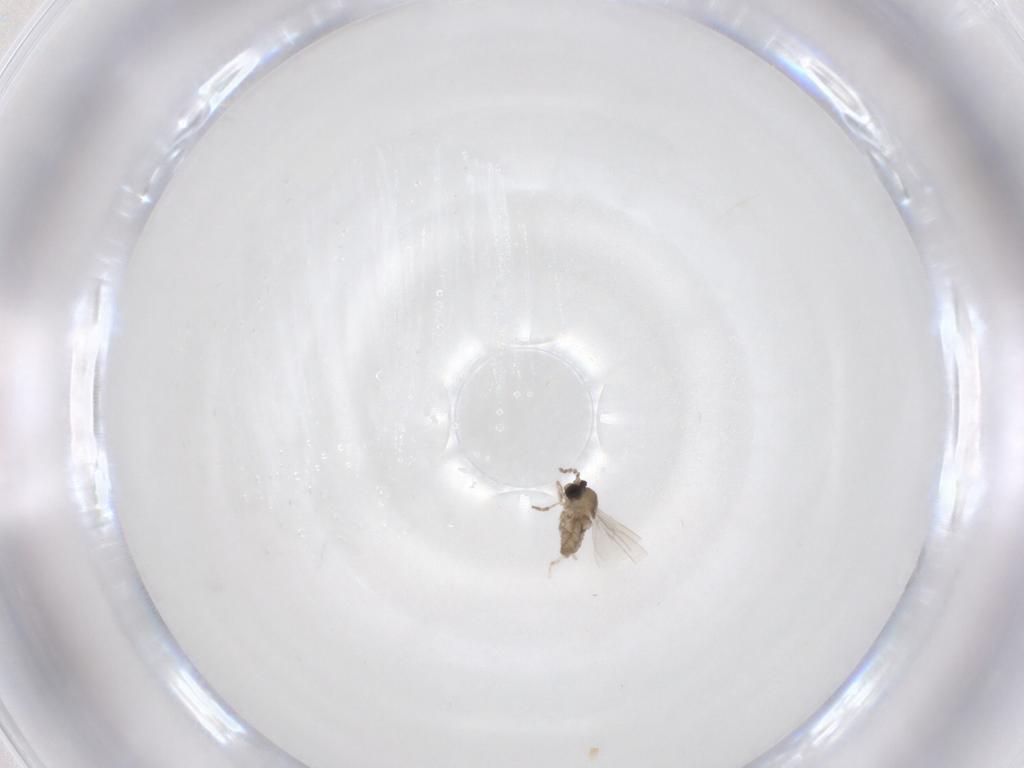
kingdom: Animalia
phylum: Arthropoda
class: Insecta
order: Diptera
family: Cecidomyiidae
